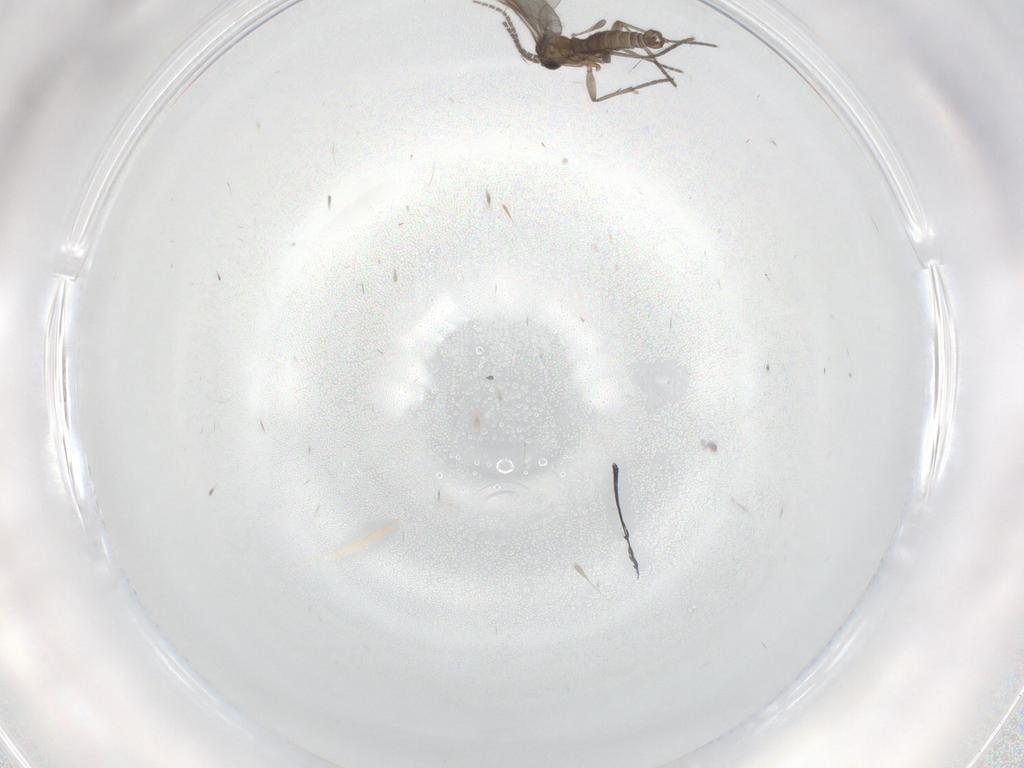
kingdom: Animalia
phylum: Arthropoda
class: Insecta
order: Diptera
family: Sciaridae
